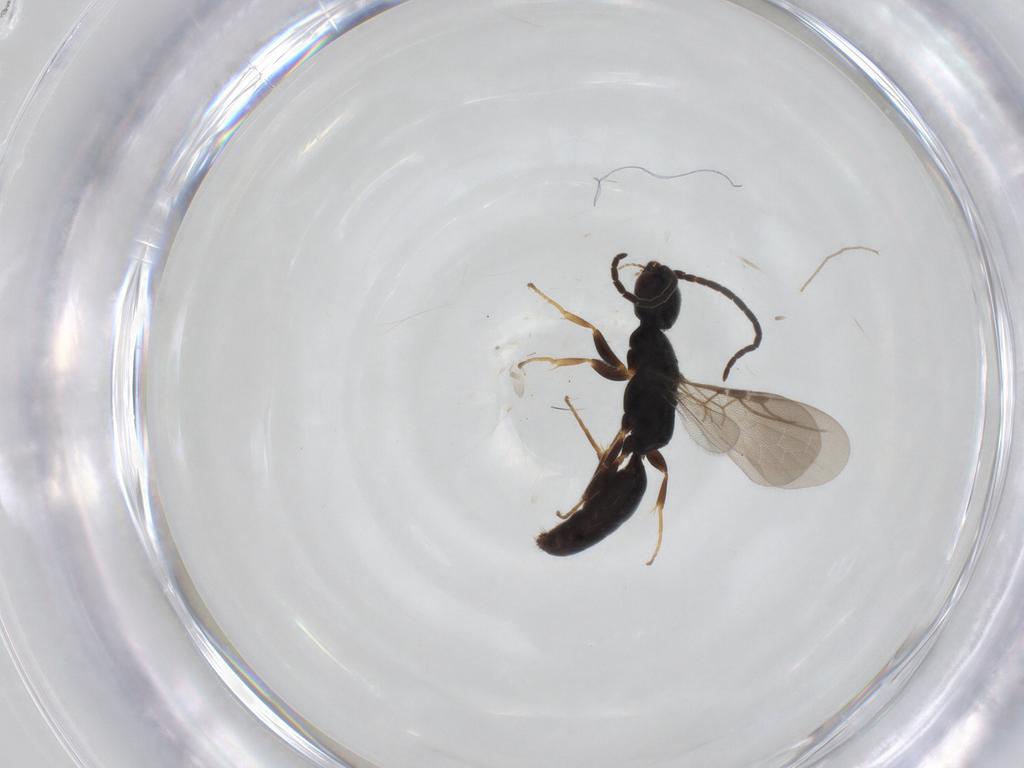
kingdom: Animalia
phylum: Arthropoda
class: Insecta
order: Hymenoptera
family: Bethylidae
